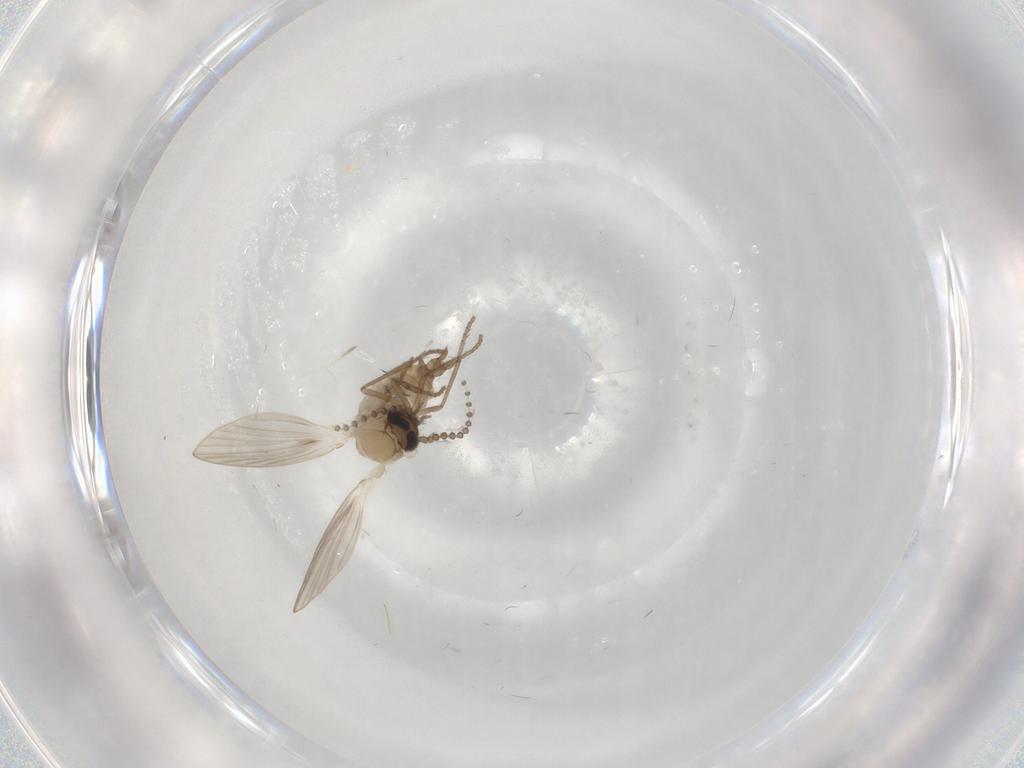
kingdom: Animalia
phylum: Arthropoda
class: Insecta
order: Diptera
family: Psychodidae
